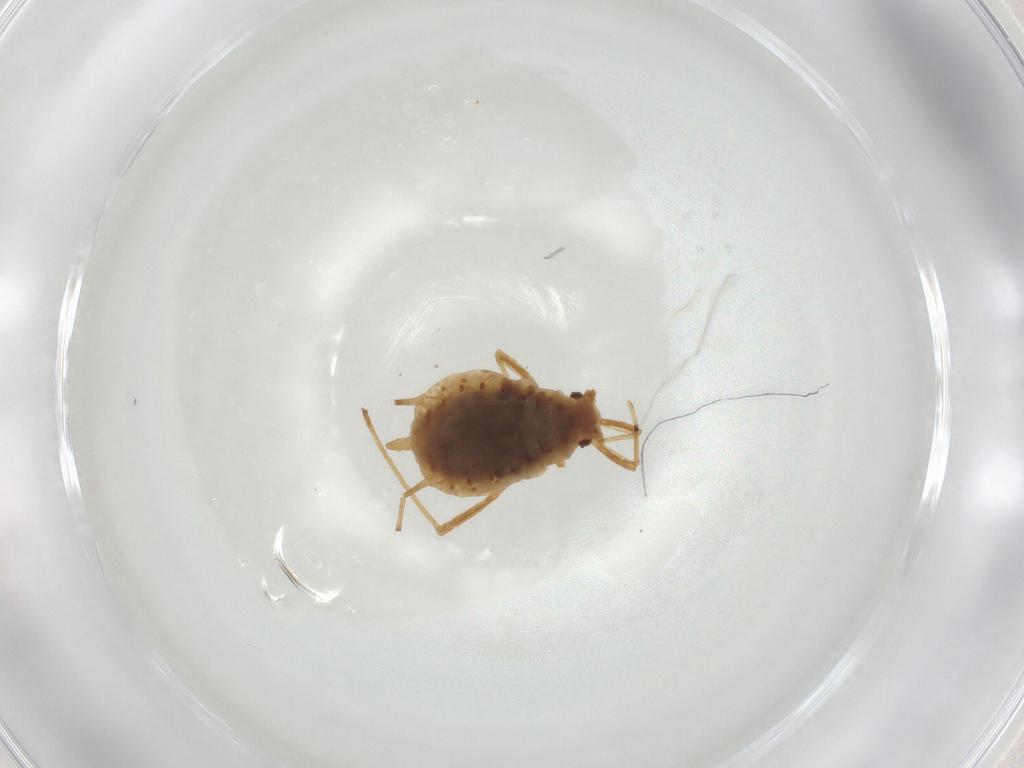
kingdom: Animalia
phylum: Arthropoda
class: Insecta
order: Hemiptera
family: Aphididae
